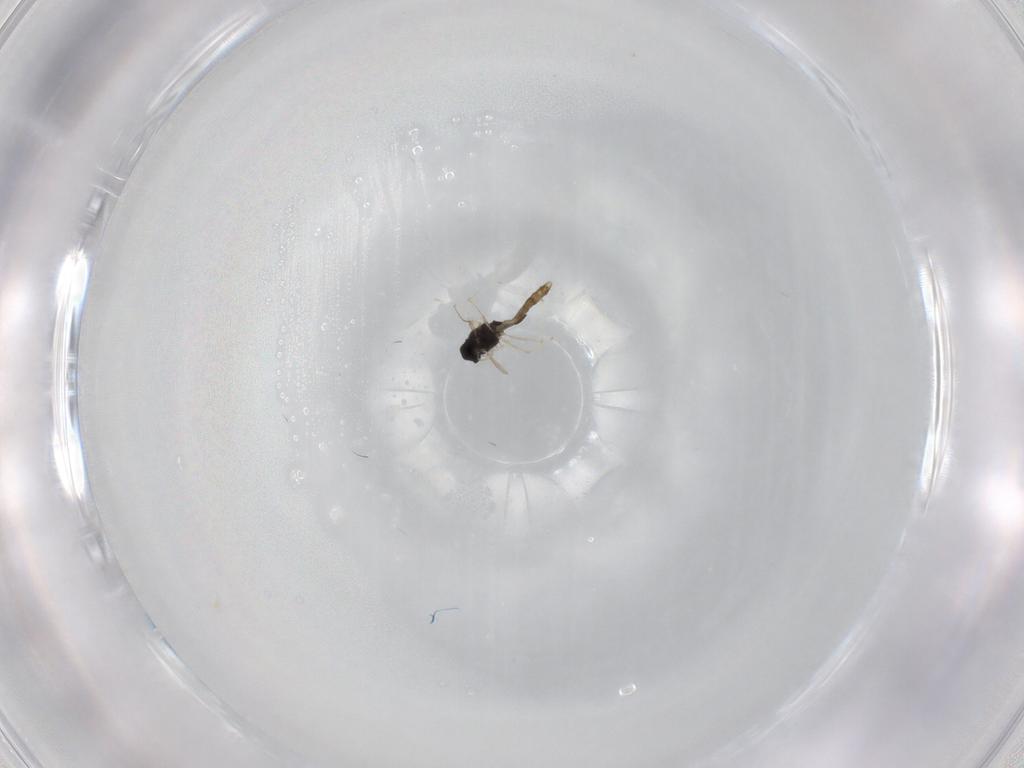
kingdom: Animalia
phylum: Arthropoda
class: Insecta
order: Diptera
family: Chironomidae
